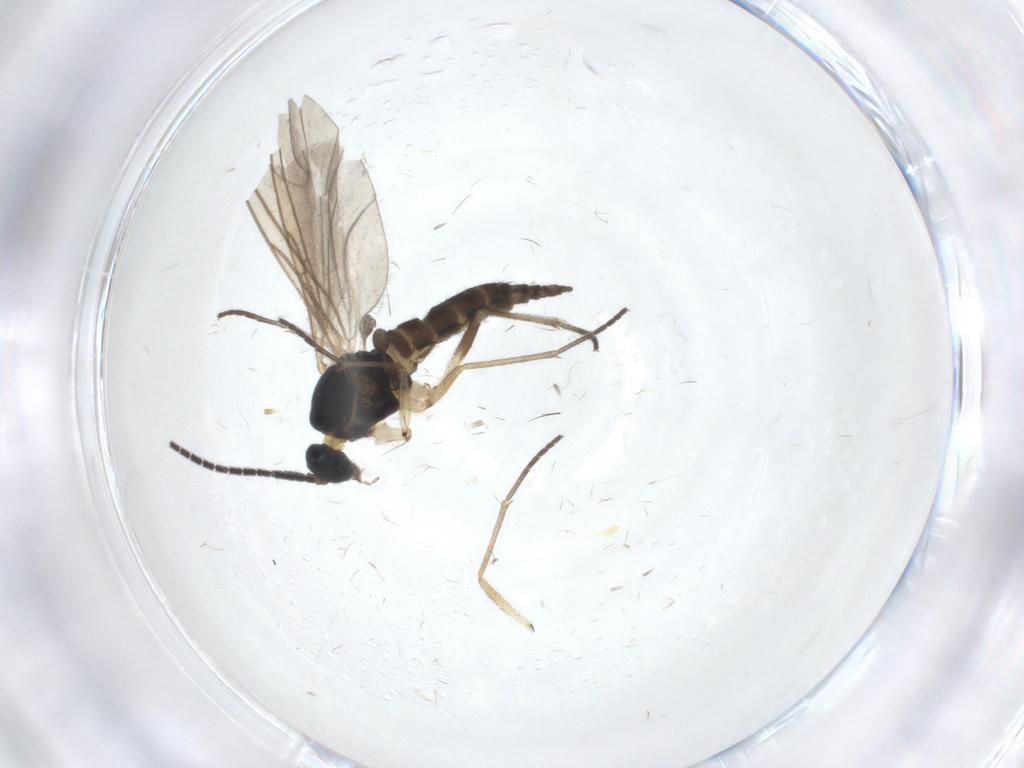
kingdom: Animalia
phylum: Arthropoda
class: Insecta
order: Diptera
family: Sciaridae
